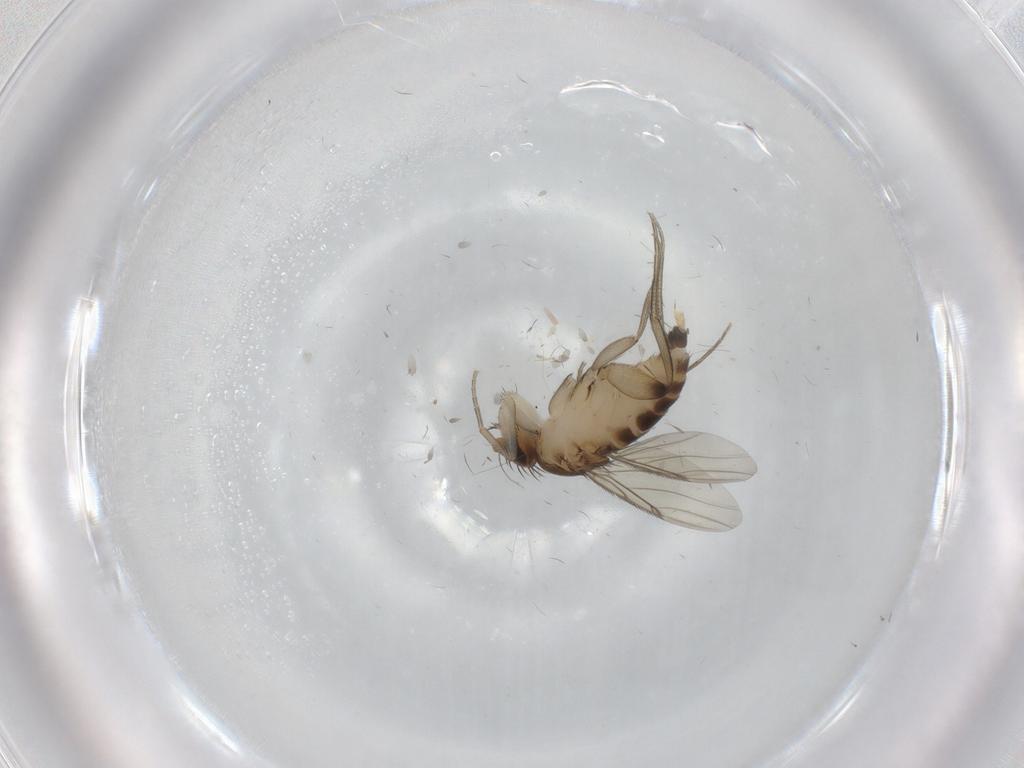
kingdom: Animalia
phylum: Arthropoda
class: Insecta
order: Diptera
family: Phoridae
